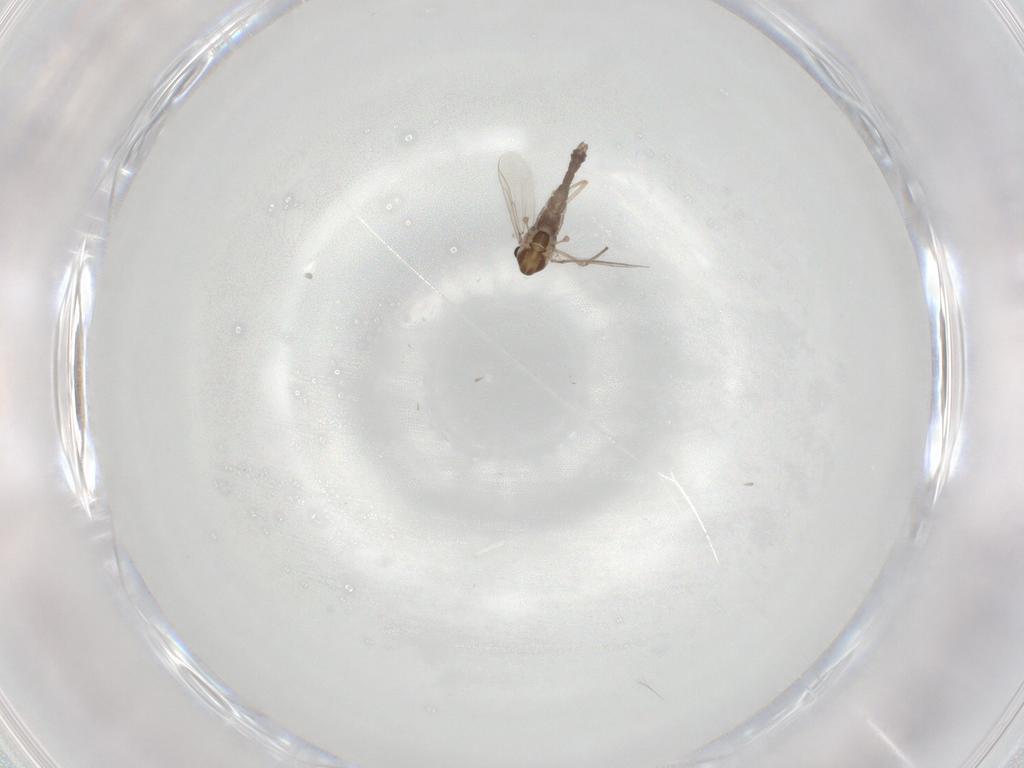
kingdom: Animalia
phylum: Arthropoda
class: Insecta
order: Diptera
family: Chironomidae
